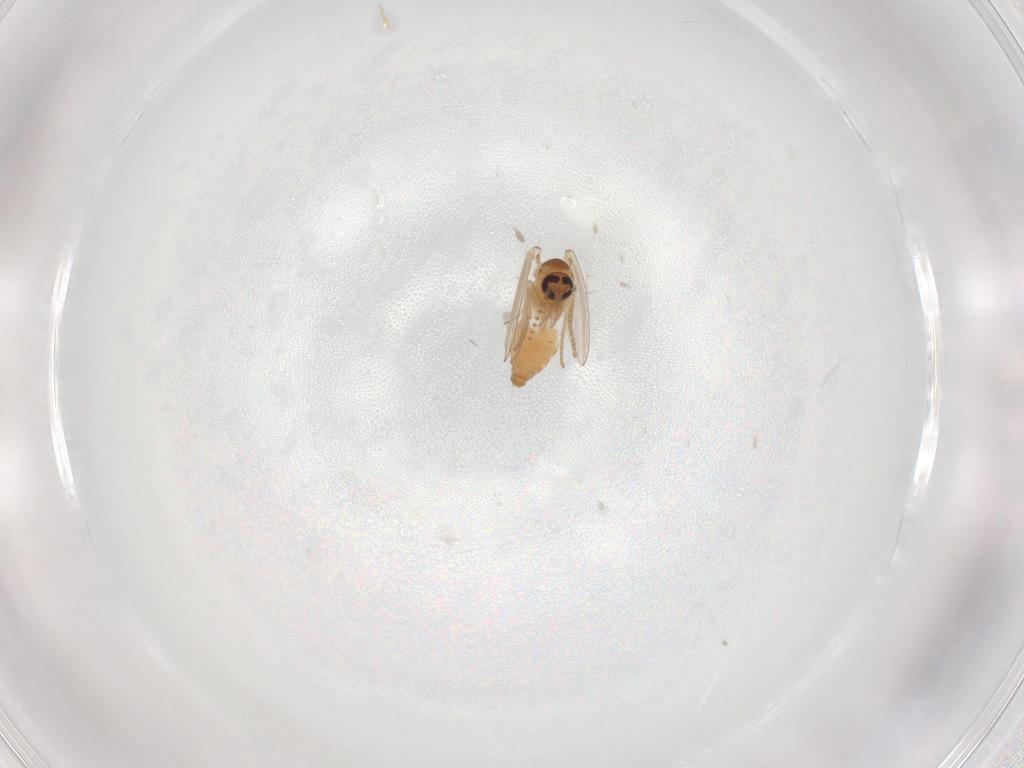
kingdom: Animalia
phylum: Arthropoda
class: Insecta
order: Diptera
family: Psychodidae
